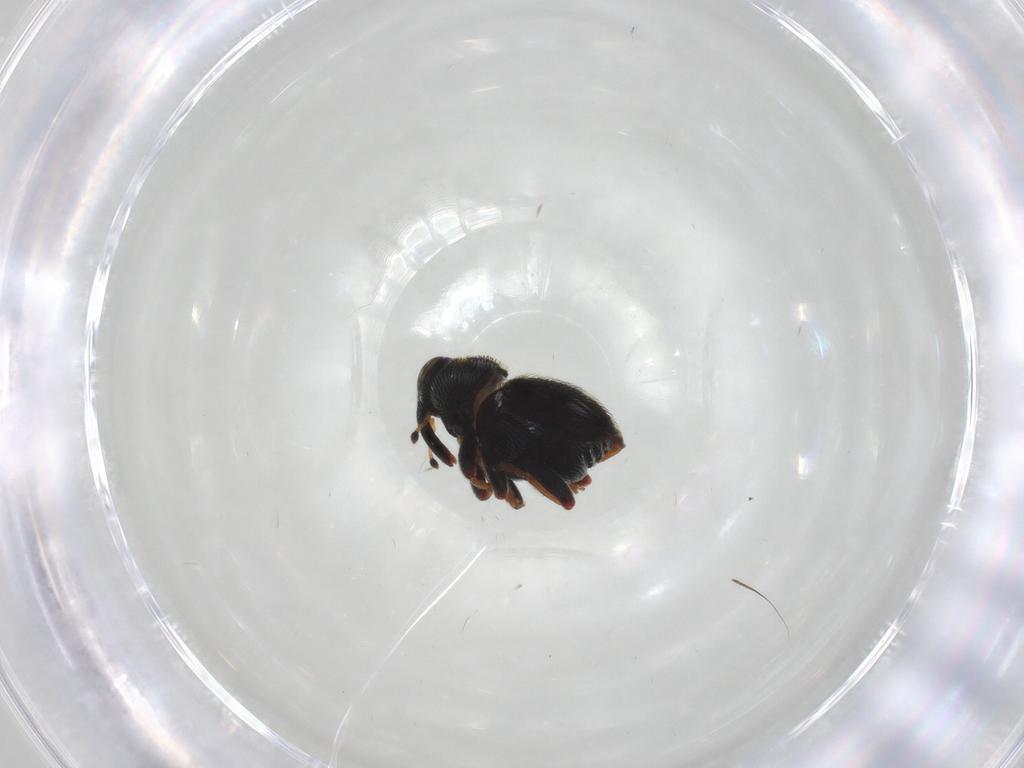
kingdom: Animalia
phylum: Arthropoda
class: Insecta
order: Coleoptera
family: Curculionidae
